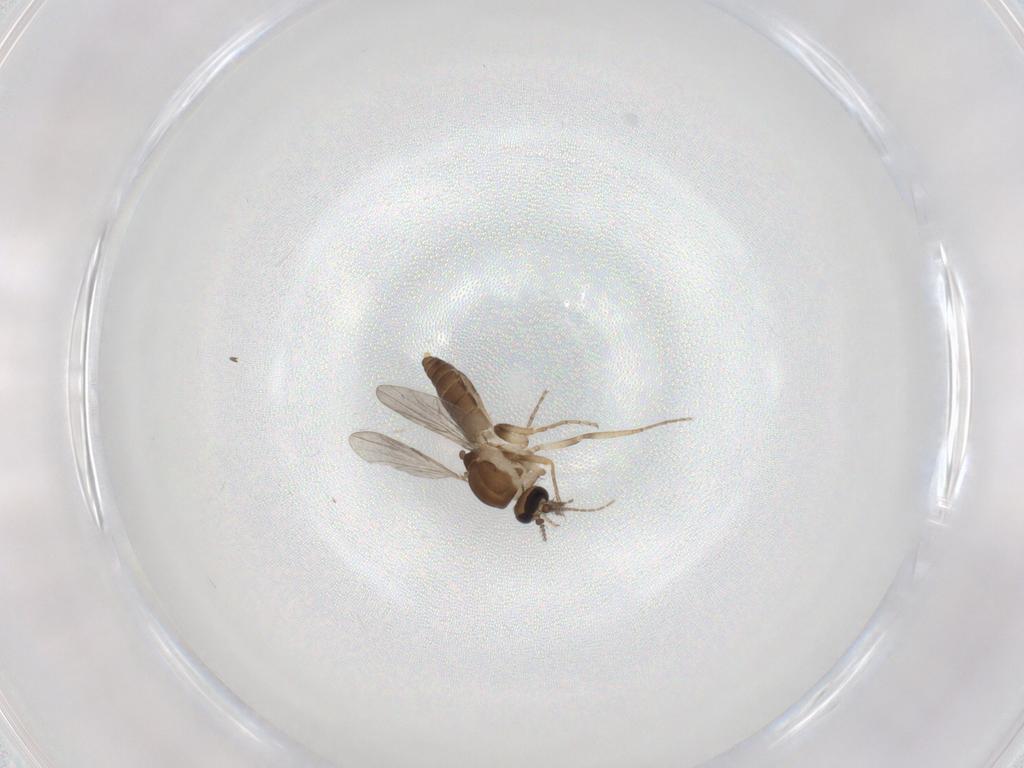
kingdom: Animalia
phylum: Arthropoda
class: Insecta
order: Diptera
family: Ceratopogonidae
